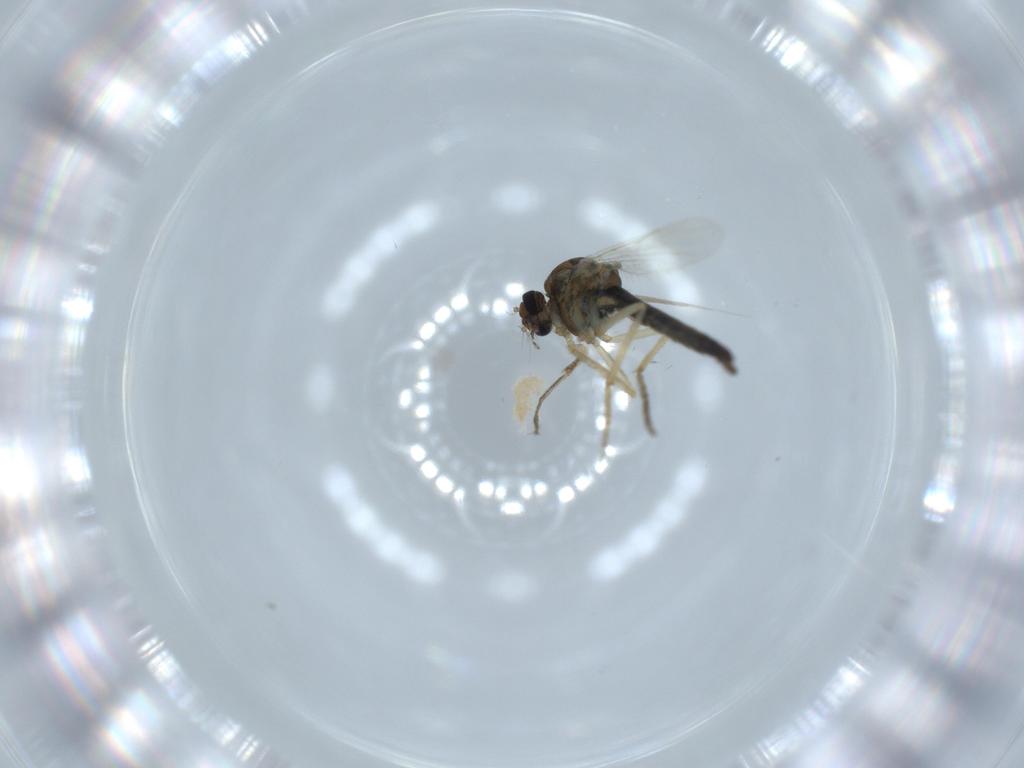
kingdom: Animalia
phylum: Arthropoda
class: Insecta
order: Diptera
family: Ceratopogonidae
